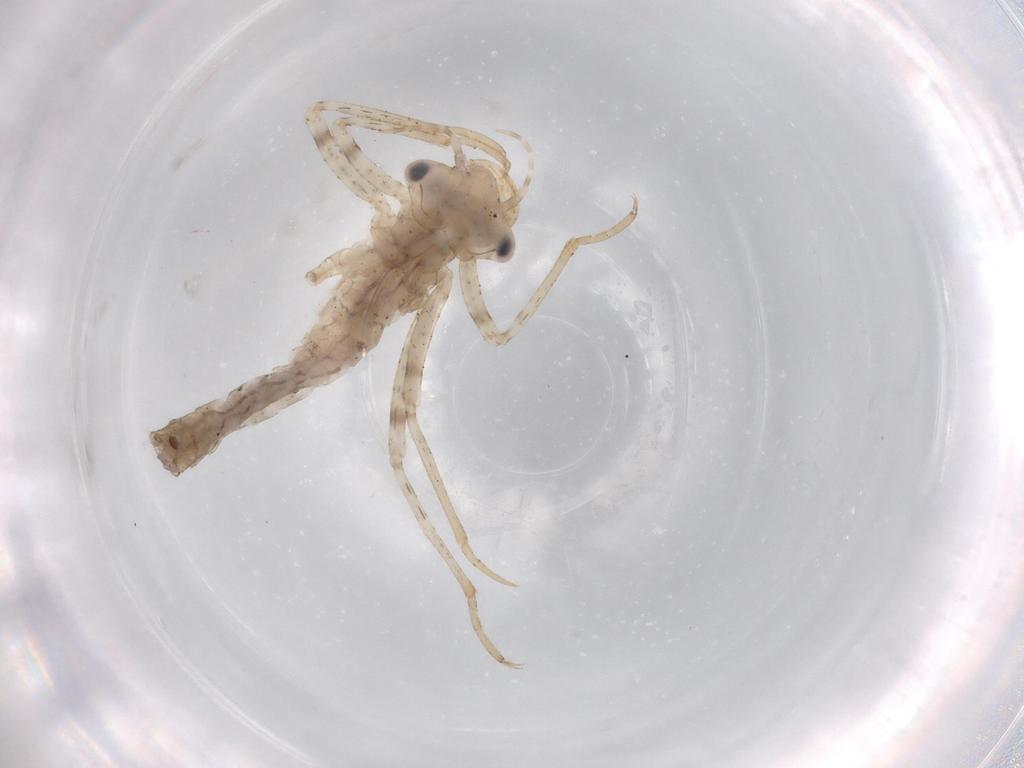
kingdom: Animalia
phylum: Arthropoda
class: Insecta
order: Odonata
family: Coenagrionidae
